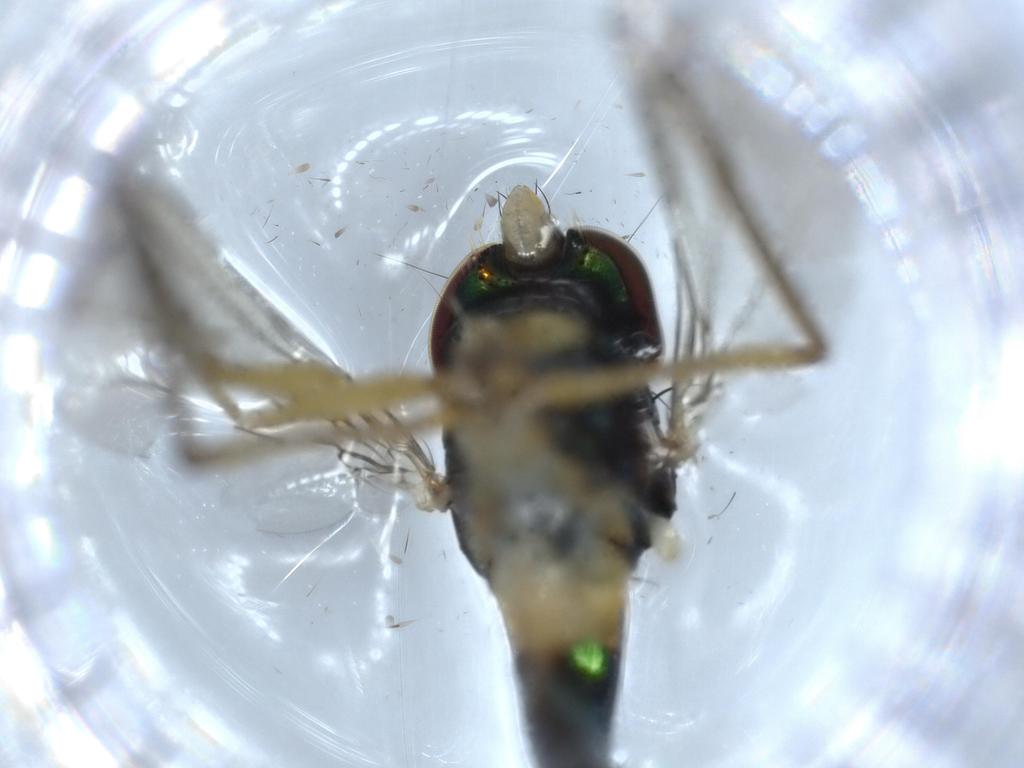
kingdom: Animalia
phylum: Arthropoda
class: Insecta
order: Diptera
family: Dolichopodidae
